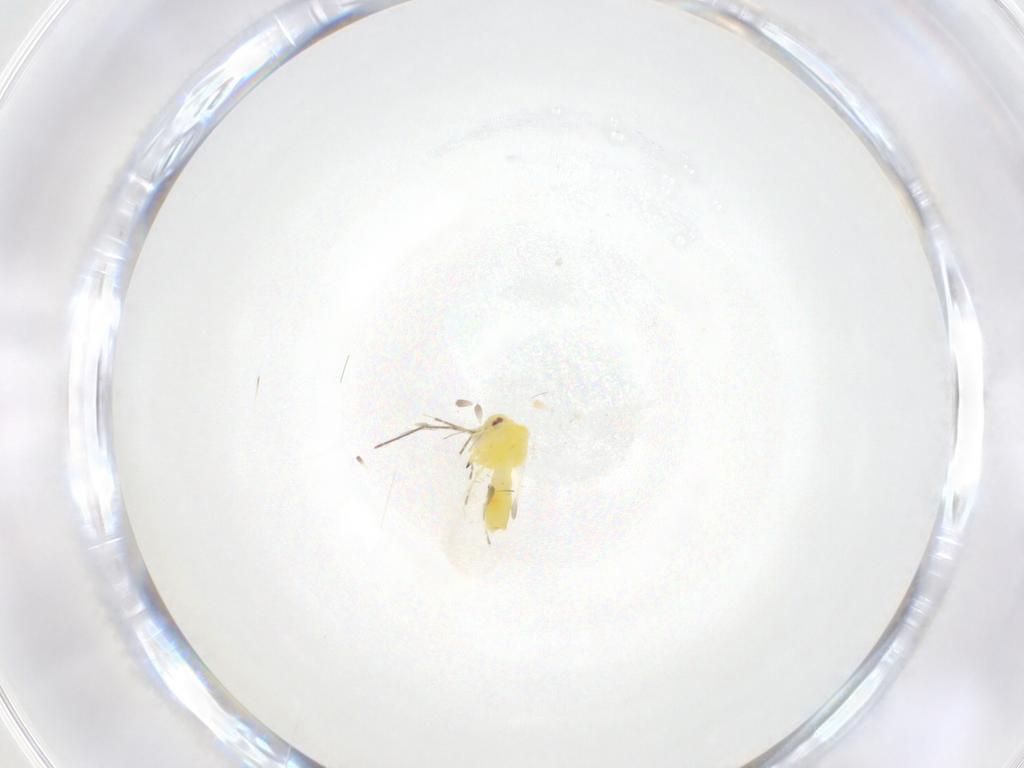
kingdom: Animalia
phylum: Arthropoda
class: Insecta
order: Hemiptera
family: Aleyrodidae
